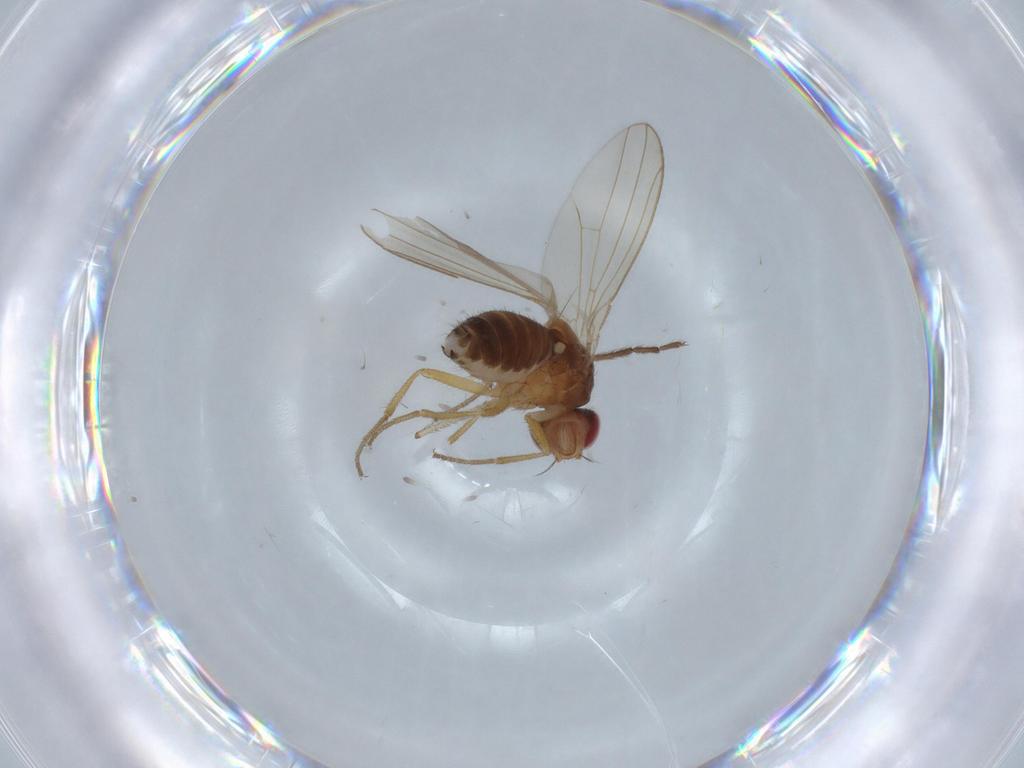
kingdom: Animalia
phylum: Arthropoda
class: Insecta
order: Diptera
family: Drosophilidae
